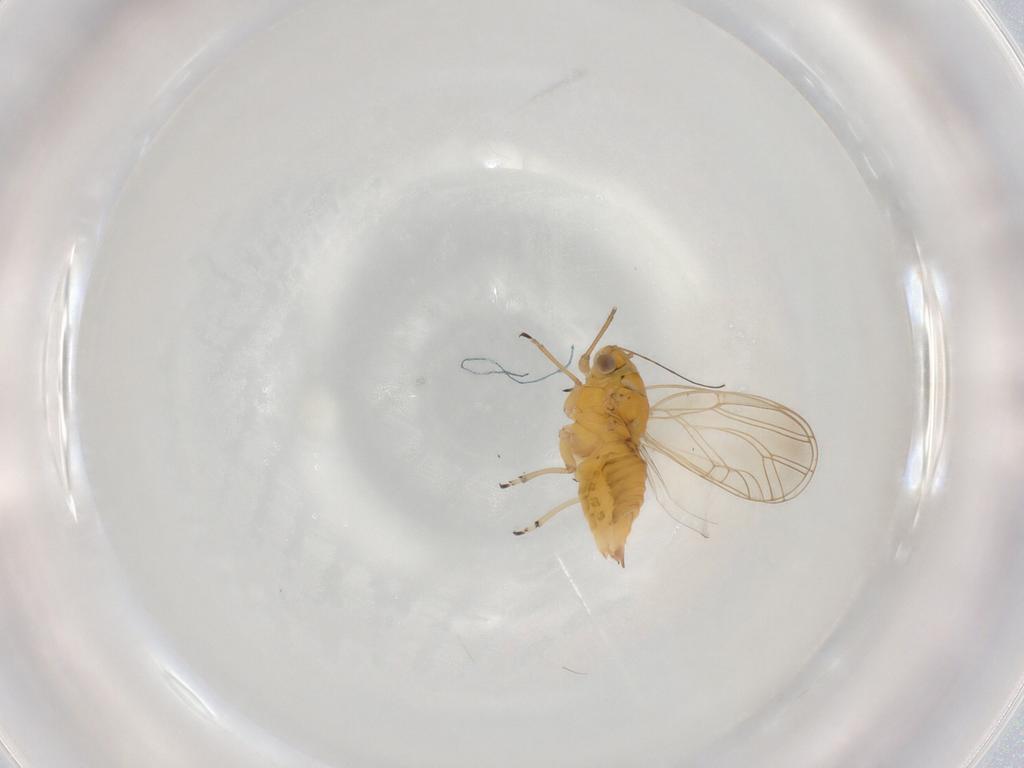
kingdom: Animalia
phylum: Arthropoda
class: Insecta
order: Hemiptera
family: Psyllidae
